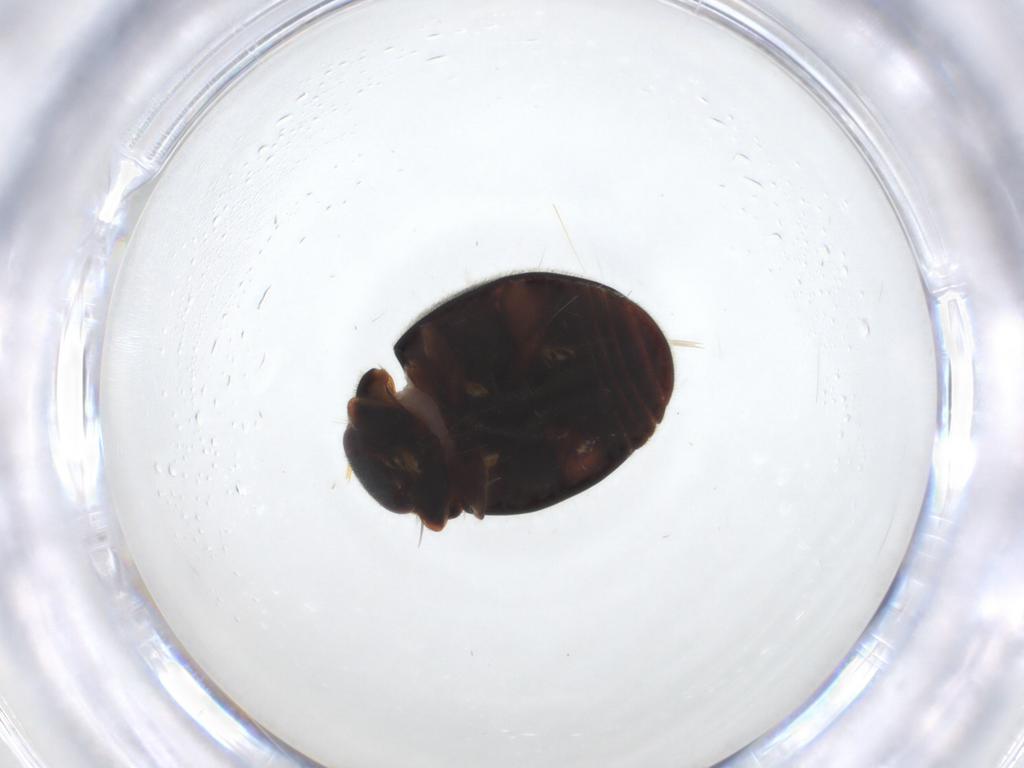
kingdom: Animalia
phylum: Arthropoda
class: Insecta
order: Coleoptera
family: Coccinellidae
